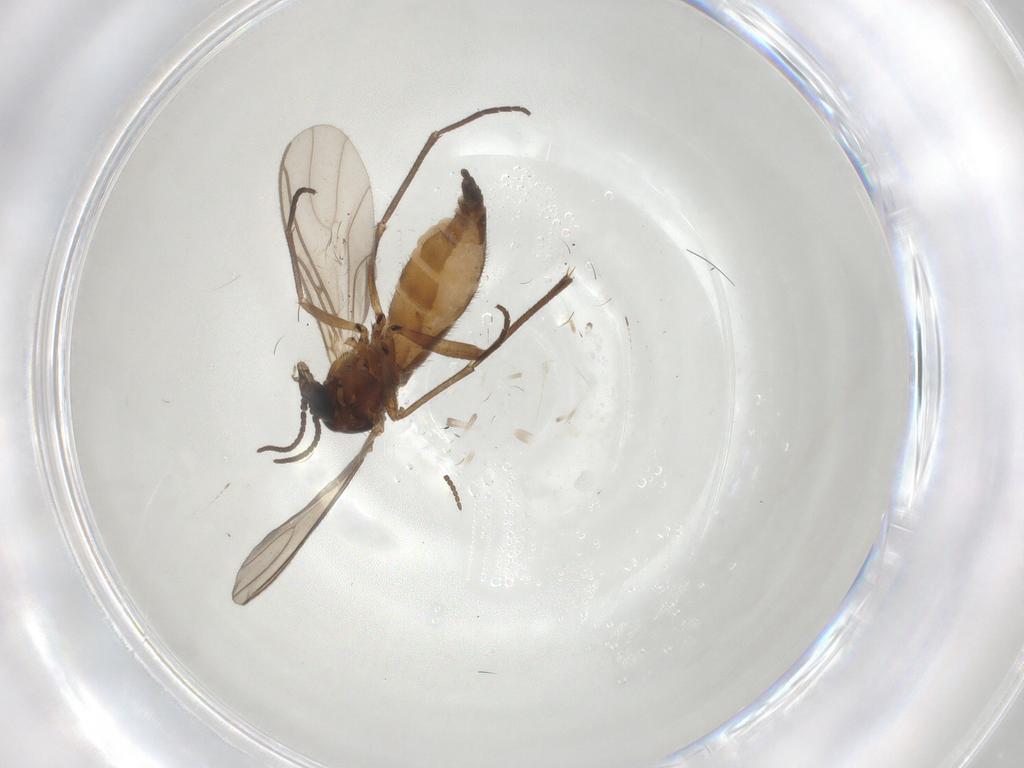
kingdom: Animalia
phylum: Arthropoda
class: Insecta
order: Diptera
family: Sciaridae
